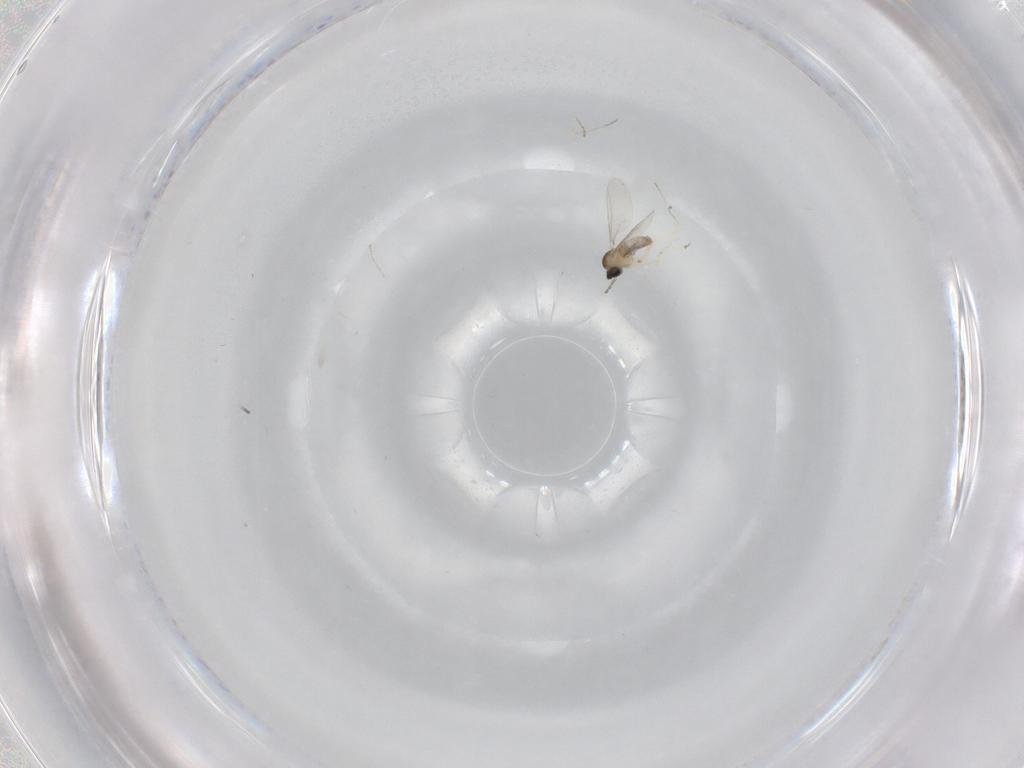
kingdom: Animalia
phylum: Arthropoda
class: Insecta
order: Diptera
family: Cecidomyiidae
